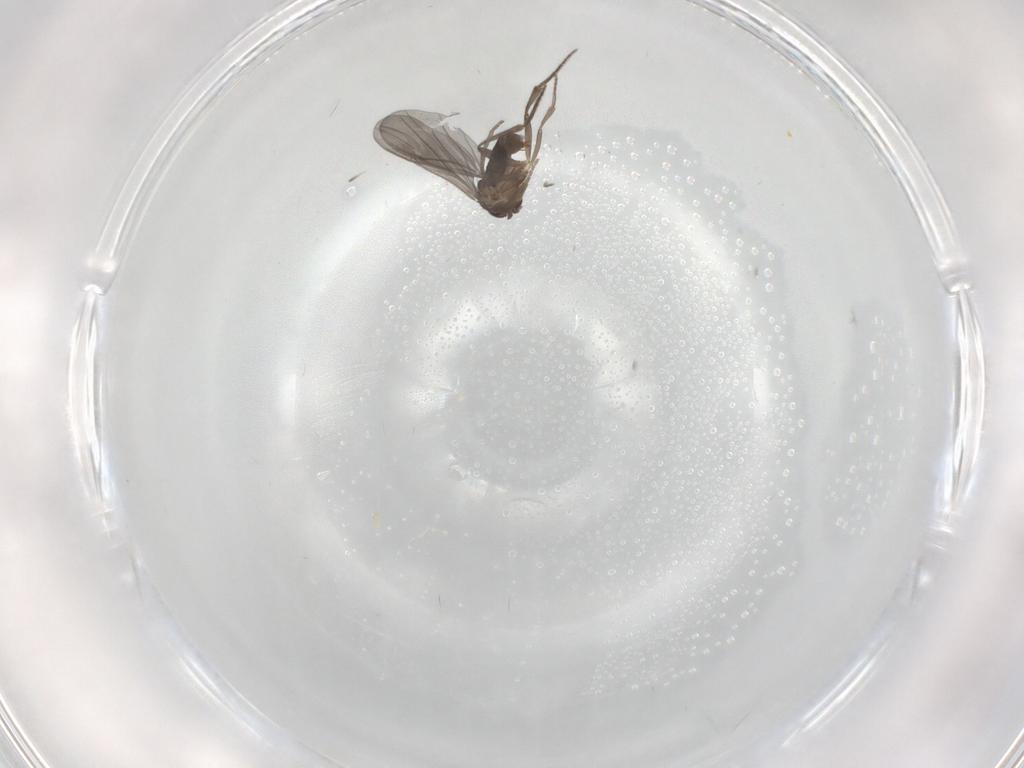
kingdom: Animalia
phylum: Arthropoda
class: Insecta
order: Diptera
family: Phoridae
